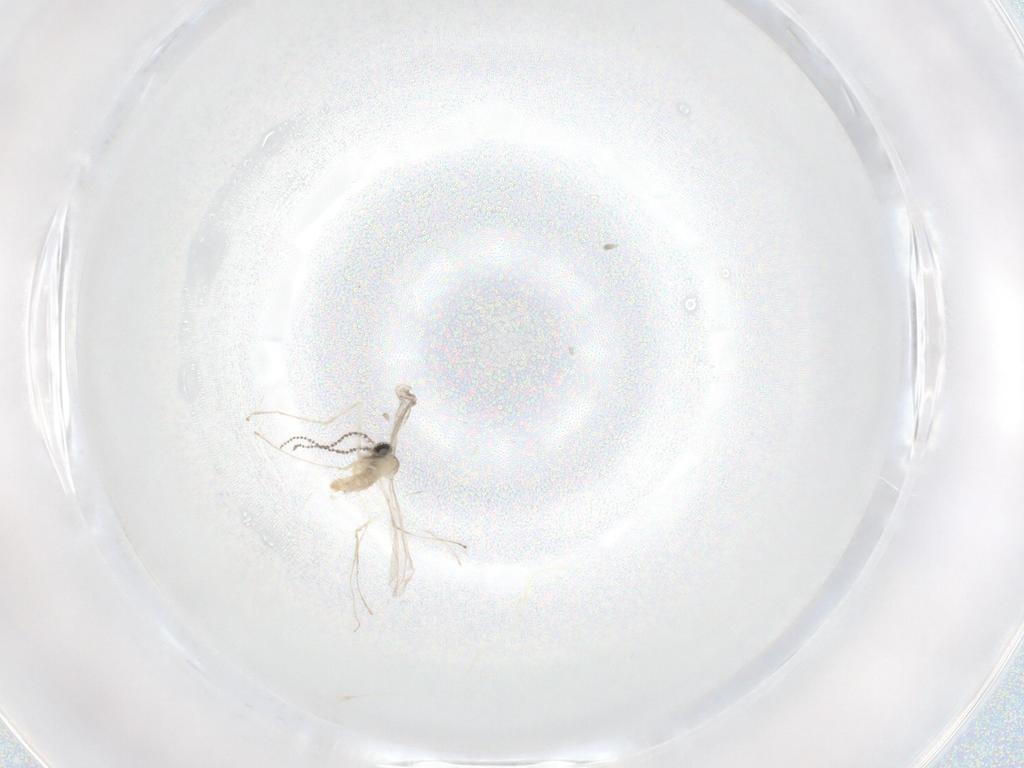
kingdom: Animalia
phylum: Arthropoda
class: Insecta
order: Diptera
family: Cecidomyiidae
